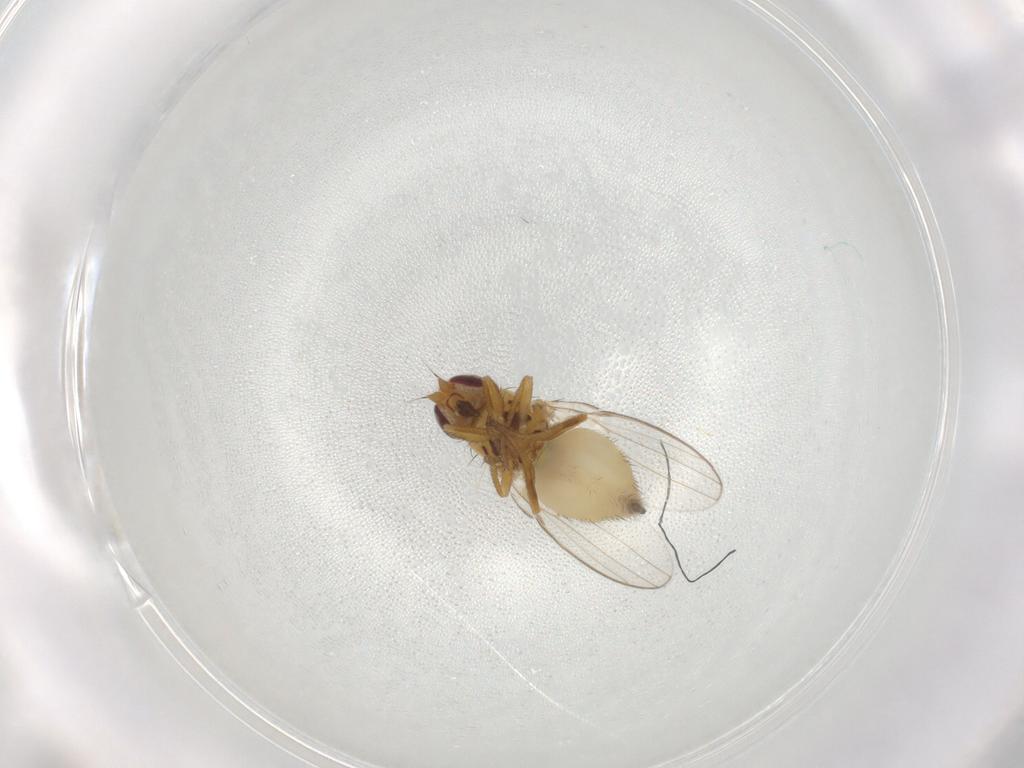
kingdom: Animalia
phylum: Arthropoda
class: Insecta
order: Diptera
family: Chloropidae
